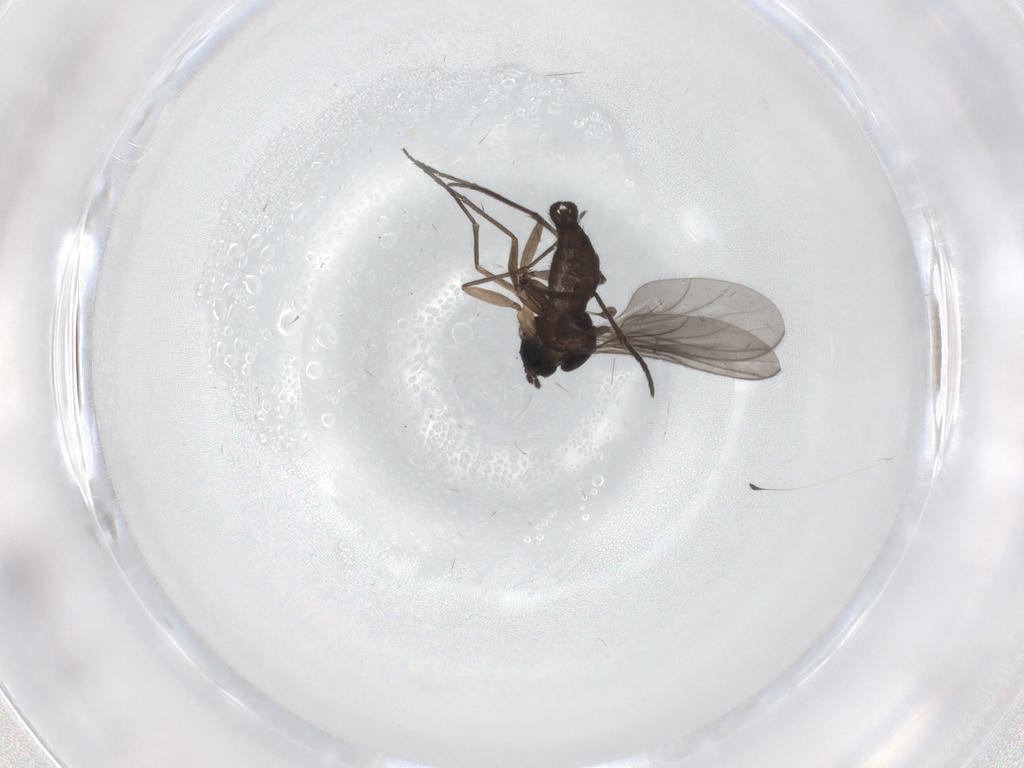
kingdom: Animalia
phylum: Arthropoda
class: Insecta
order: Diptera
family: Sciaridae
